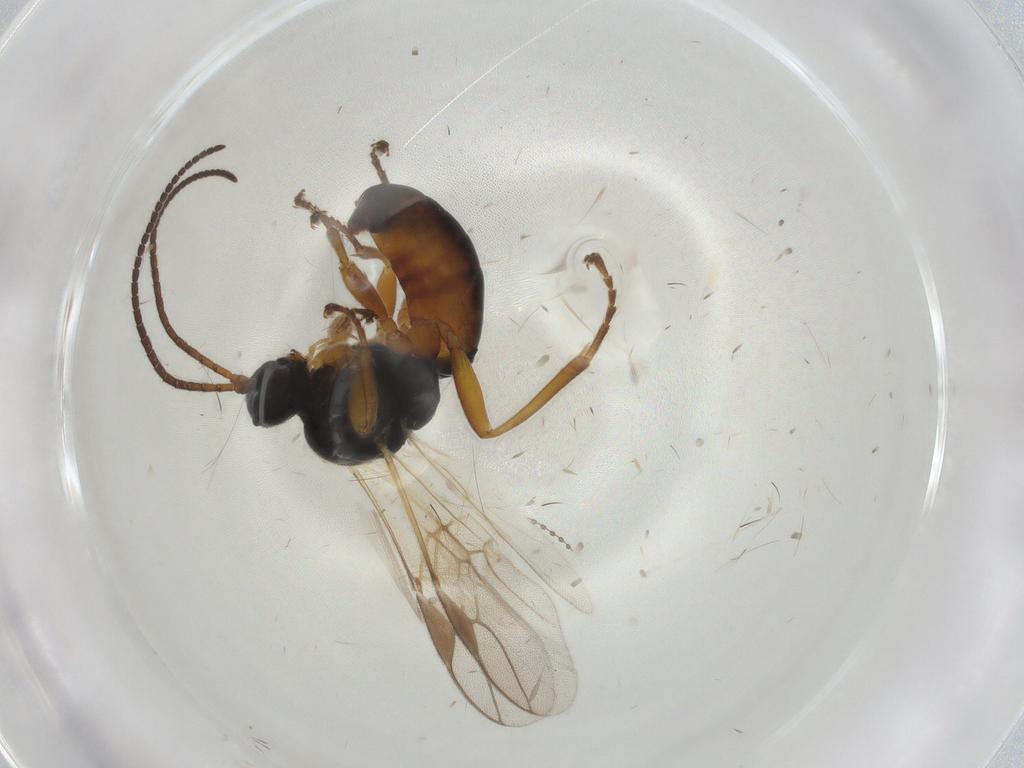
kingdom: Animalia
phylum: Arthropoda
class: Insecta
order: Hymenoptera
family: Braconidae
